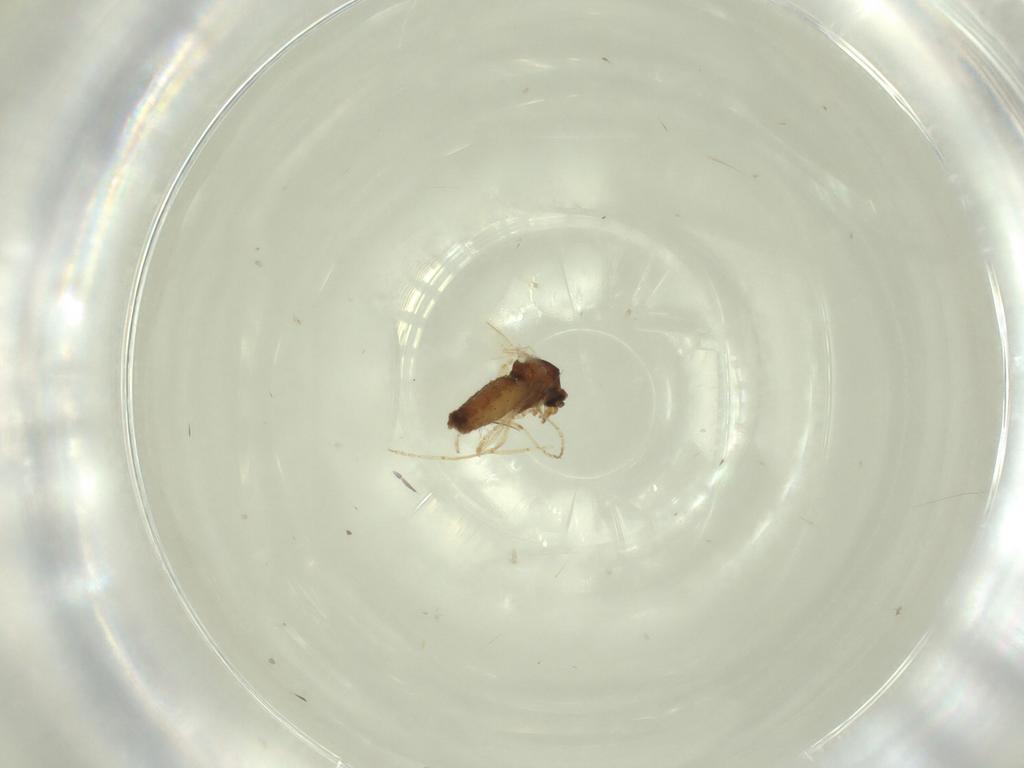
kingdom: Animalia
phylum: Arthropoda
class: Insecta
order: Diptera
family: Ceratopogonidae
